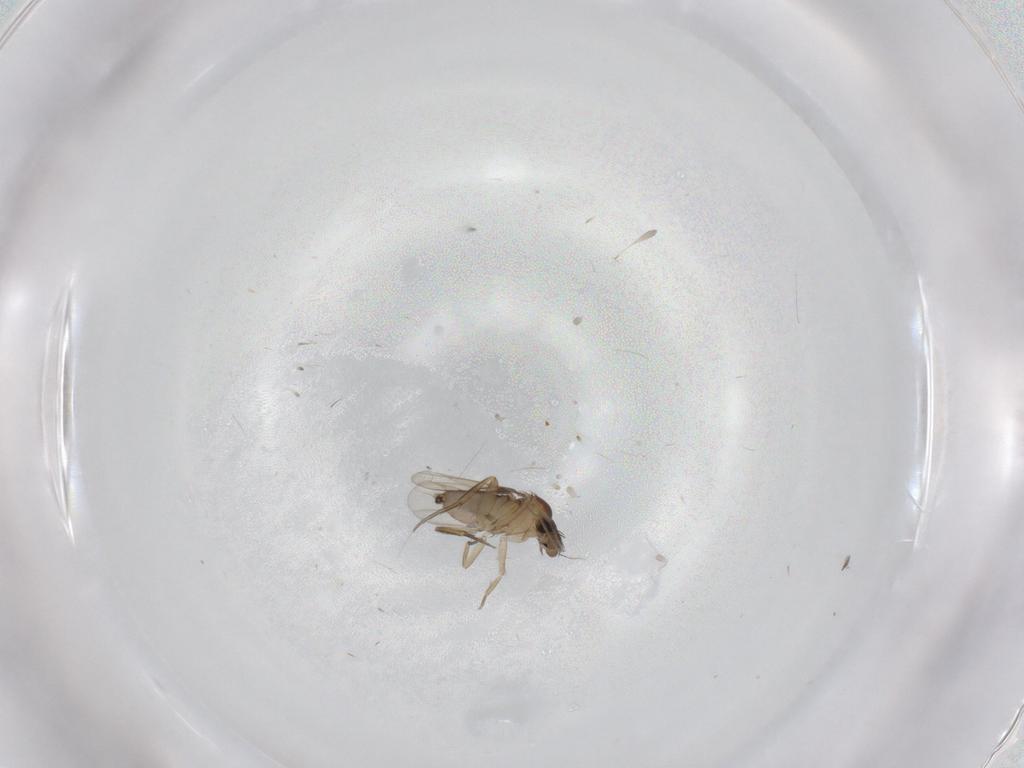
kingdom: Animalia
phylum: Arthropoda
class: Insecta
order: Diptera
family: Phoridae
